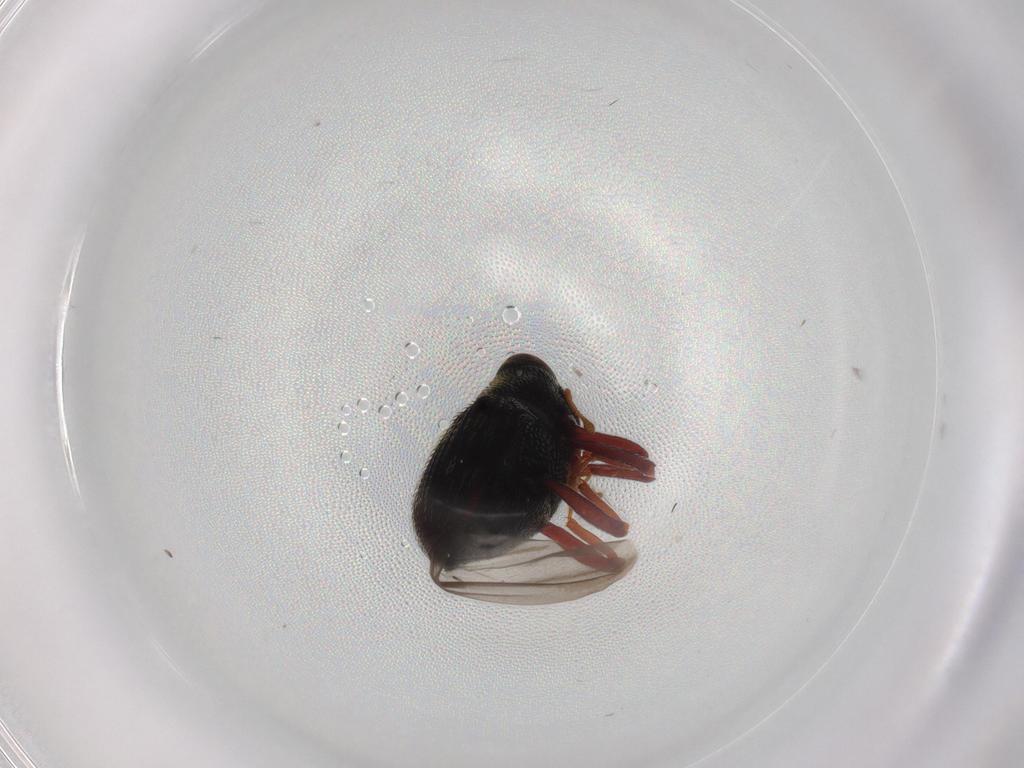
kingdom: Animalia
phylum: Arthropoda
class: Insecta
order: Coleoptera
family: Curculionidae
